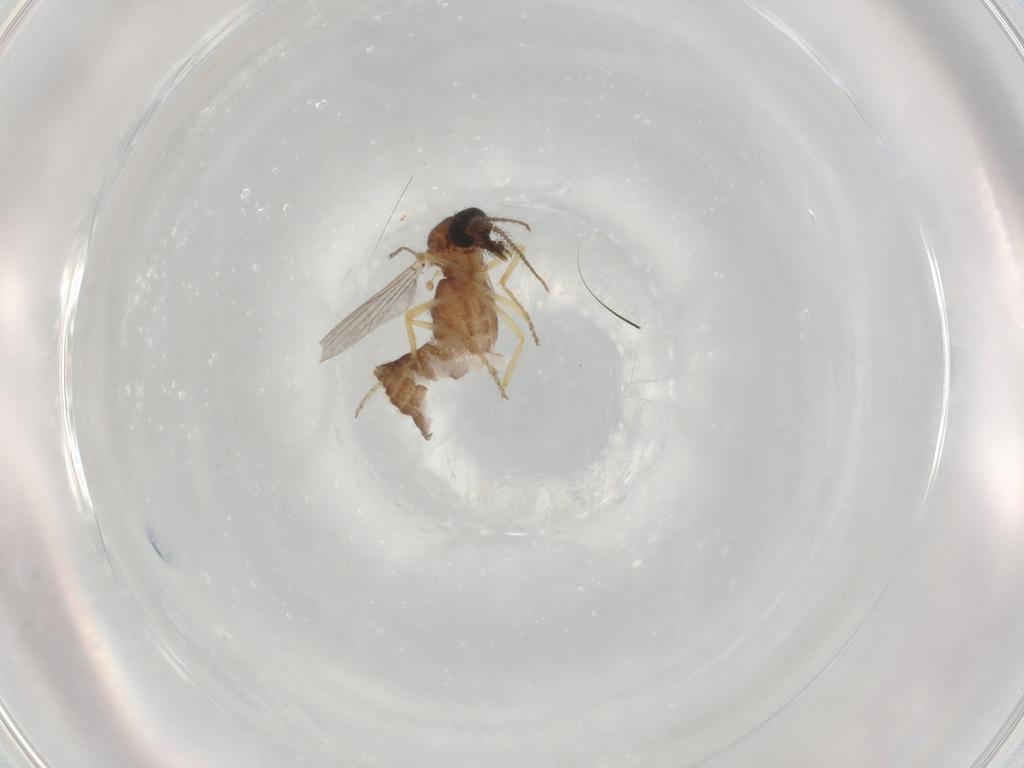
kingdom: Animalia
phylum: Arthropoda
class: Insecta
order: Diptera
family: Ceratopogonidae
